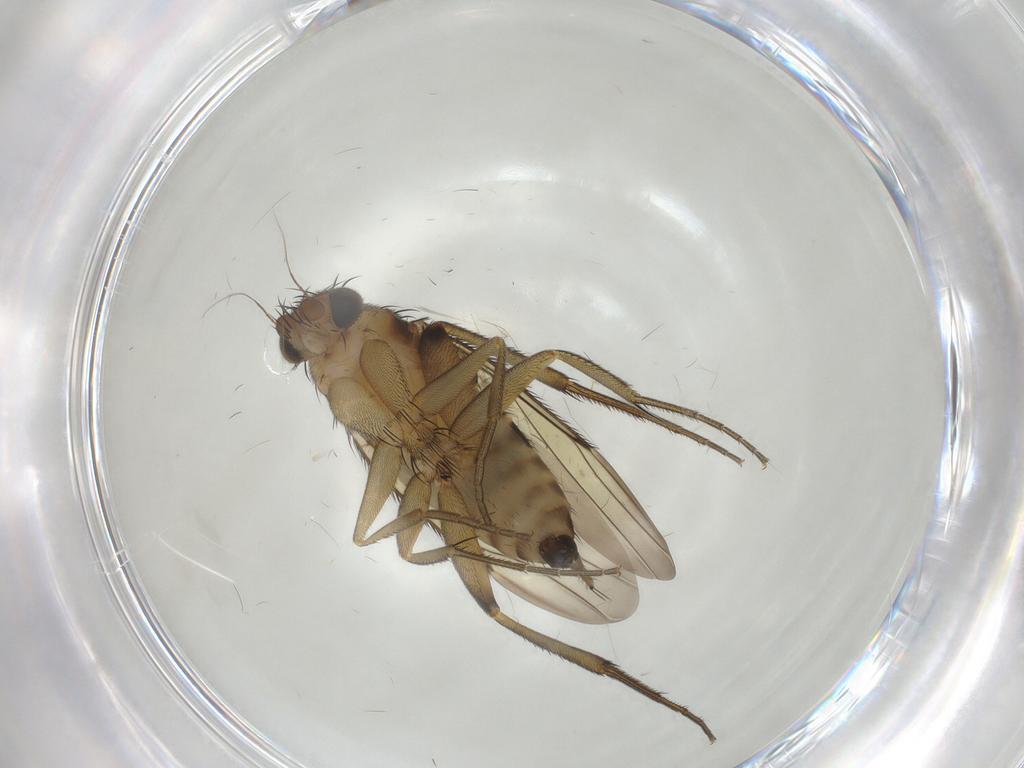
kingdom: Animalia
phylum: Arthropoda
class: Insecta
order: Diptera
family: Phoridae
